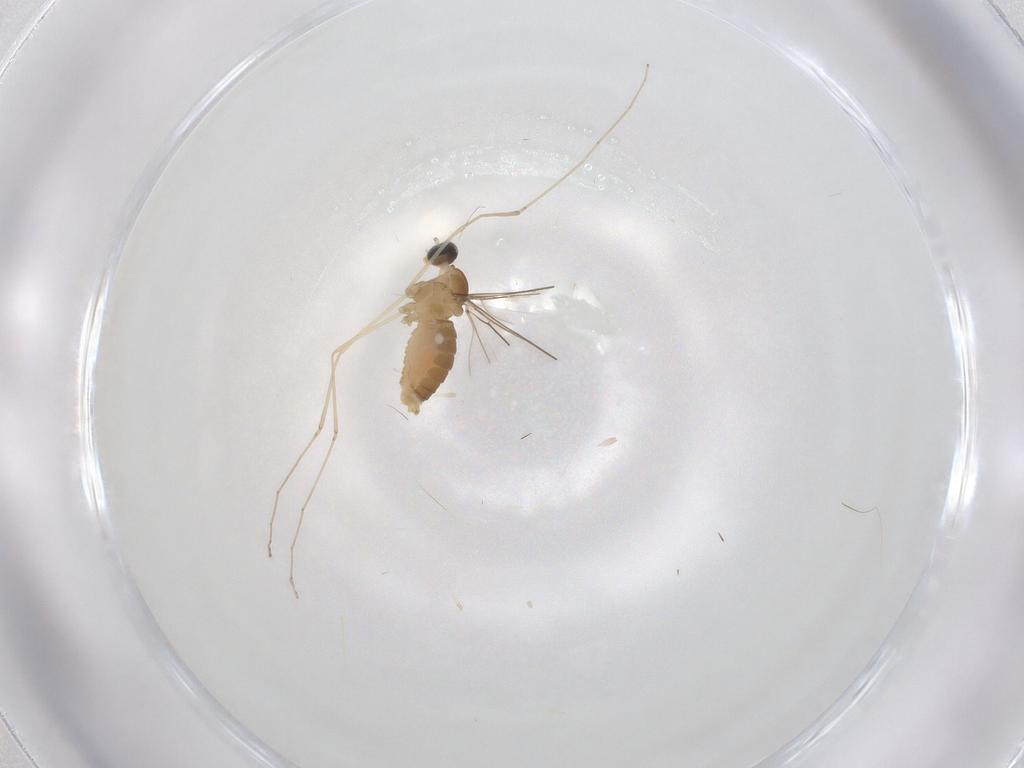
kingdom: Animalia
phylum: Arthropoda
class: Insecta
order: Diptera
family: Cecidomyiidae
